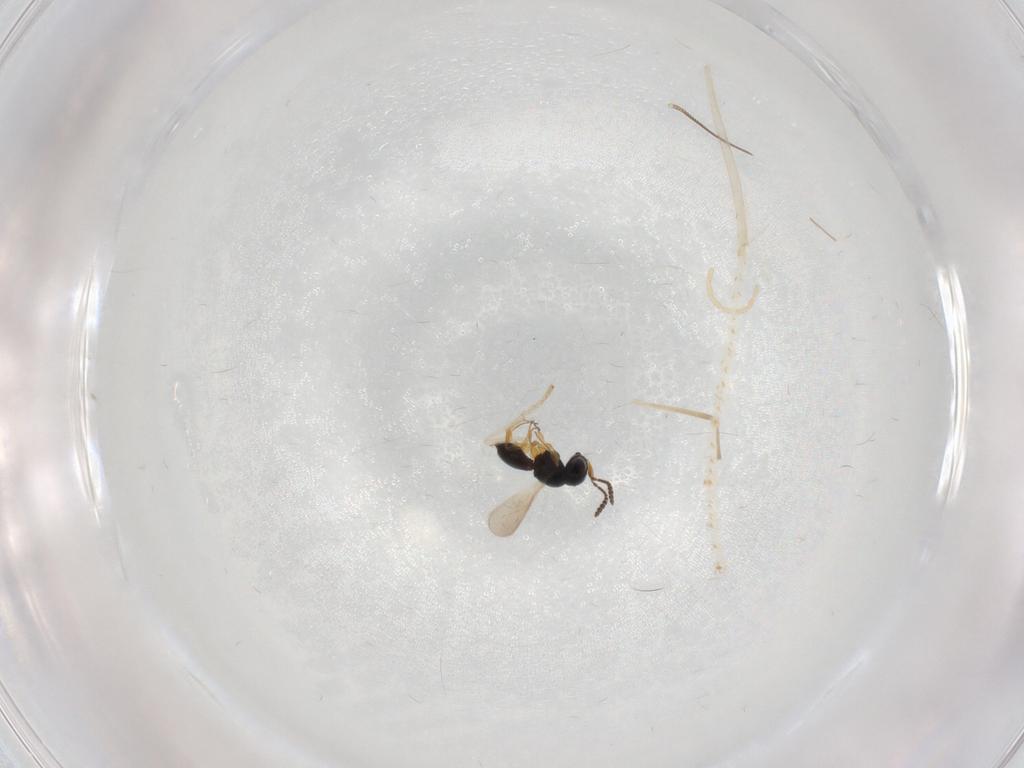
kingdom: Animalia
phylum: Arthropoda
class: Insecta
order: Hymenoptera
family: Scelionidae
